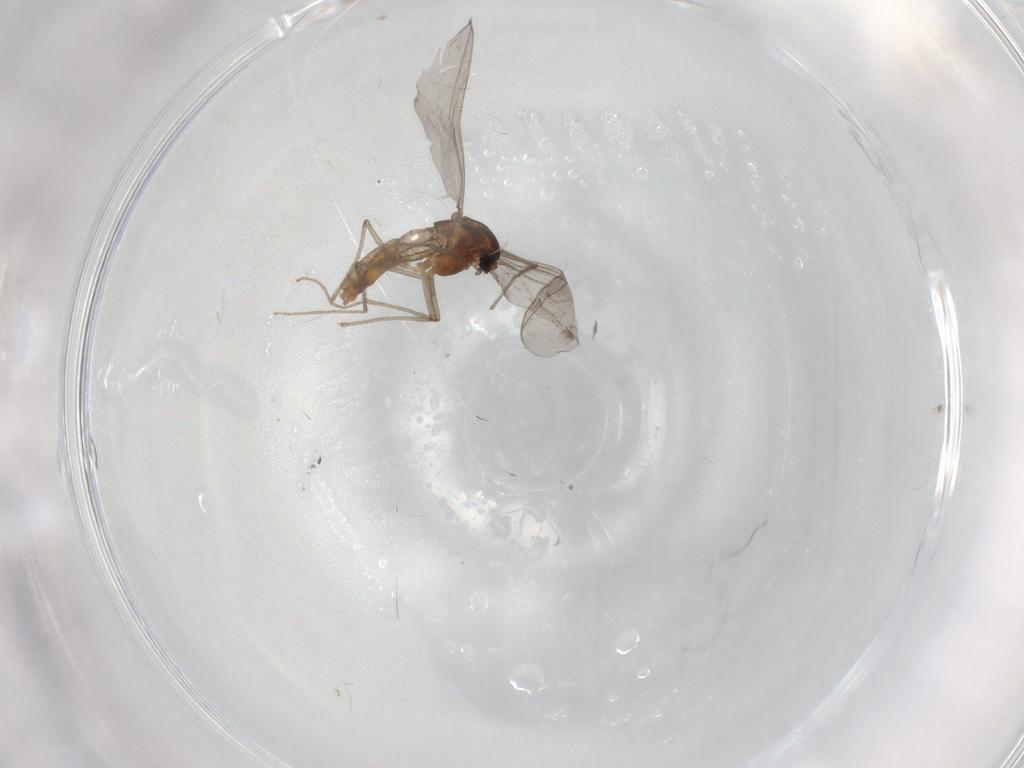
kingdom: Animalia
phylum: Arthropoda
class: Insecta
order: Diptera
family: Chironomidae
